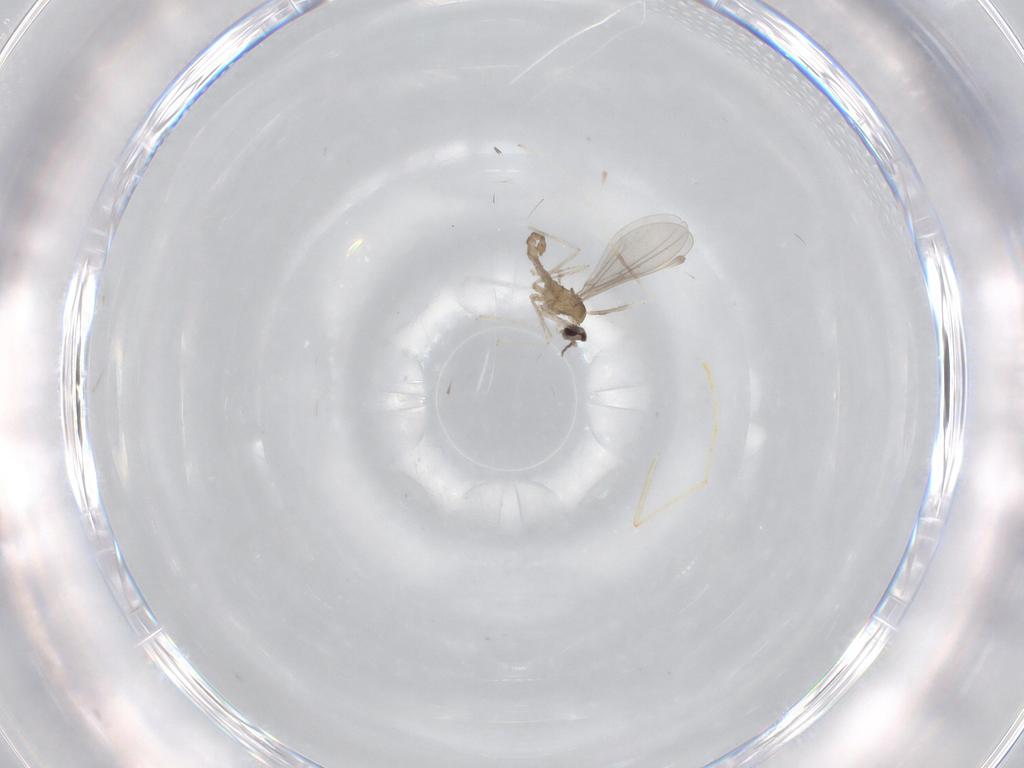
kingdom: Animalia
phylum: Arthropoda
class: Insecta
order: Diptera
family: Cecidomyiidae
